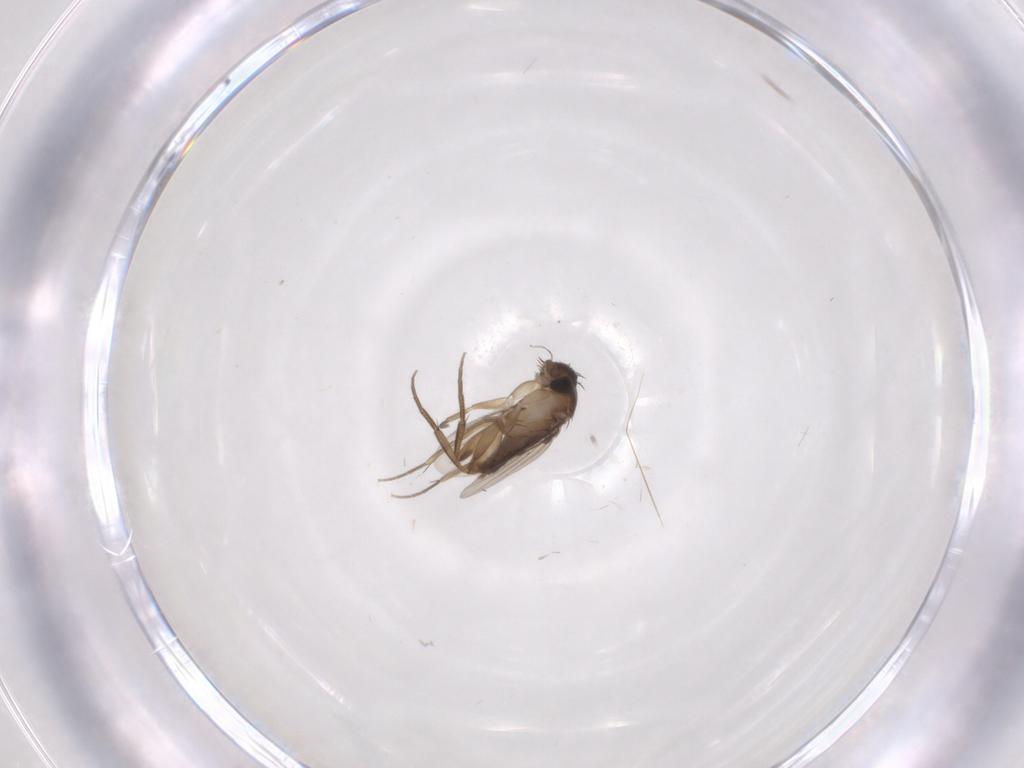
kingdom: Animalia
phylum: Arthropoda
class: Insecta
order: Diptera
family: Phoridae
